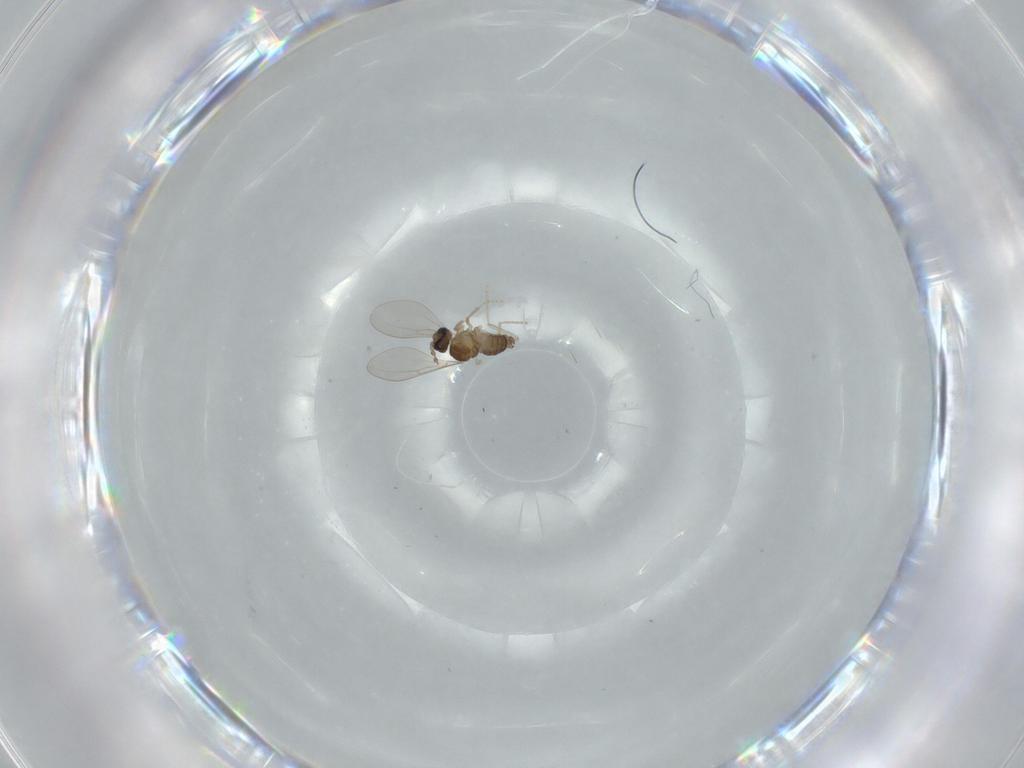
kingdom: Animalia
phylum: Arthropoda
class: Insecta
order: Diptera
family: Cecidomyiidae
